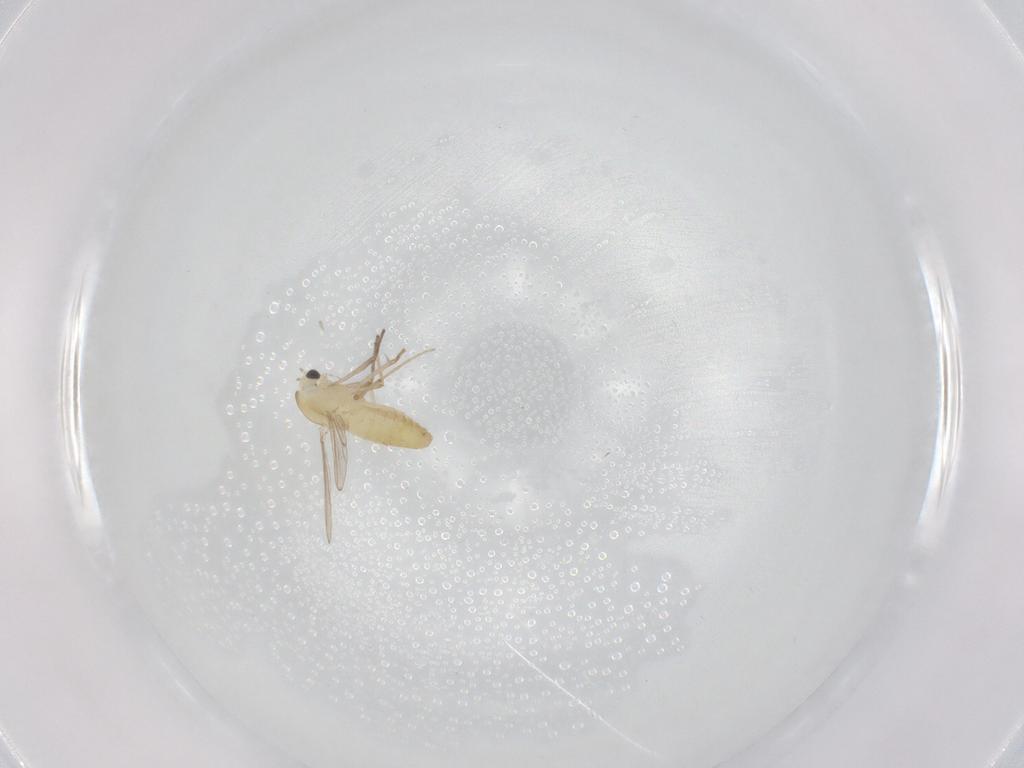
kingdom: Animalia
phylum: Arthropoda
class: Insecta
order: Diptera
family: Chironomidae
